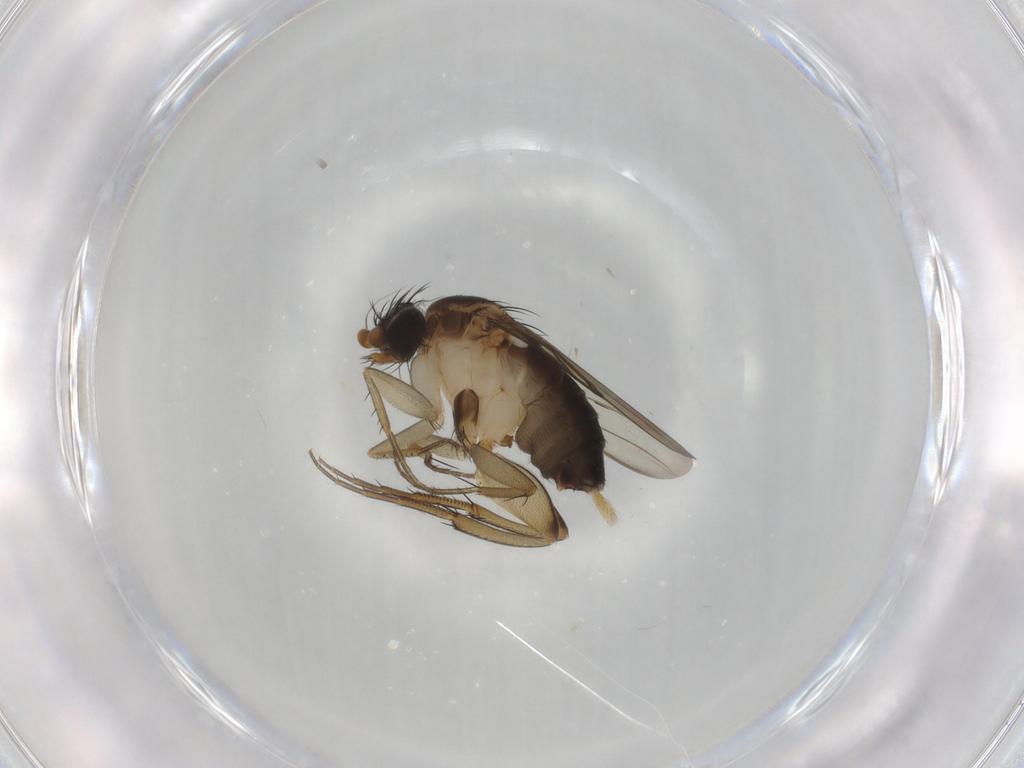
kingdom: Animalia
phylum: Arthropoda
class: Insecta
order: Diptera
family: Phoridae
